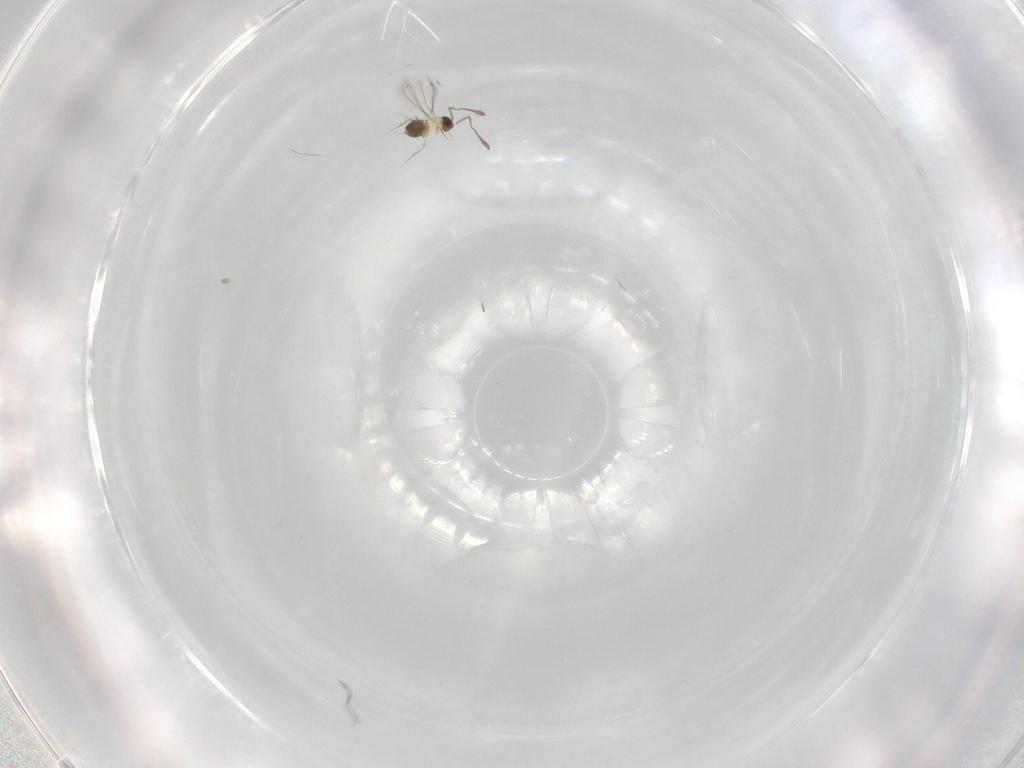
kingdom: Animalia
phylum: Arthropoda
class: Insecta
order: Hymenoptera
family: Mymaridae
